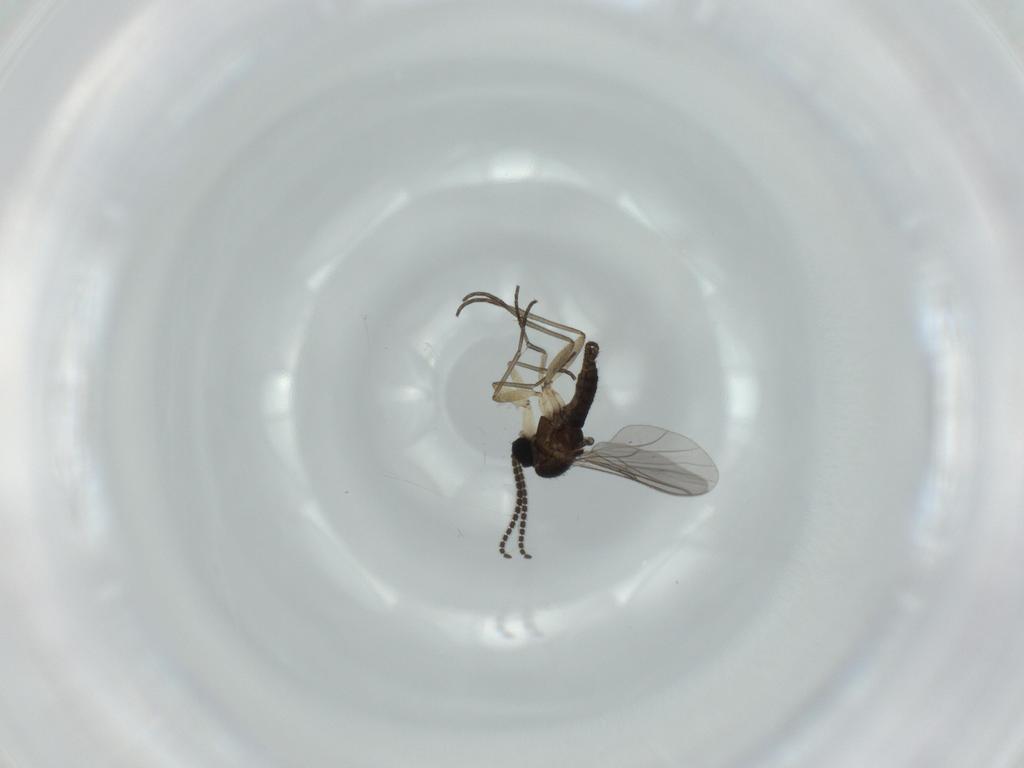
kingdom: Animalia
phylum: Arthropoda
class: Insecta
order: Diptera
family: Sciaridae
